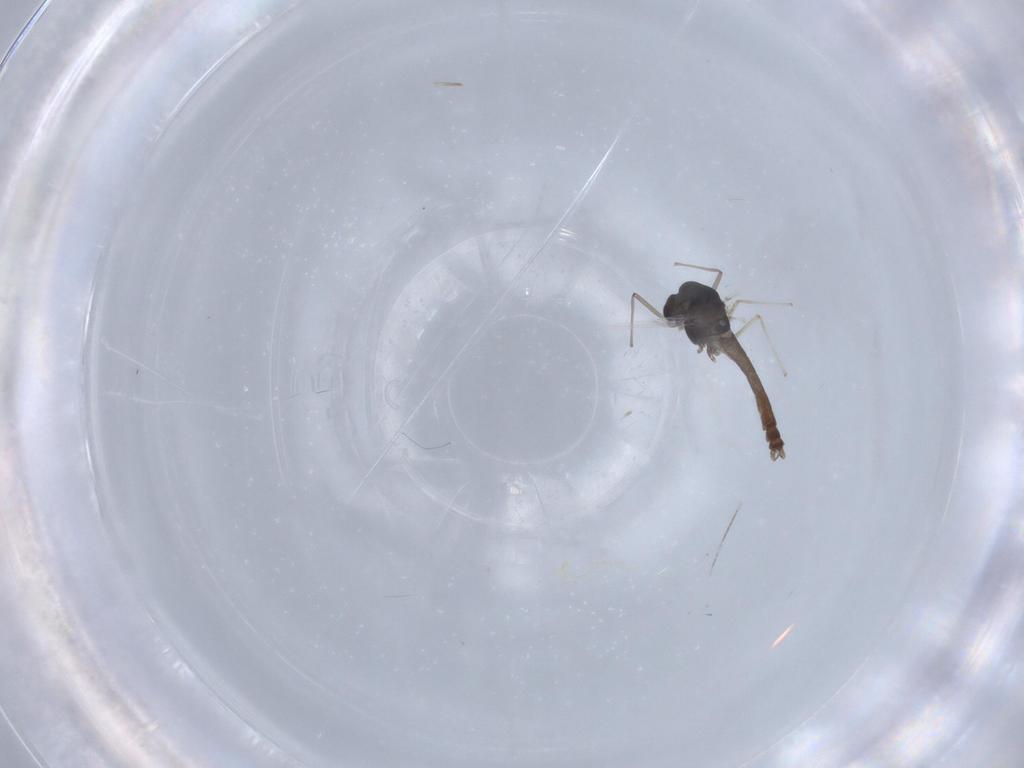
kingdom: Animalia
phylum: Arthropoda
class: Insecta
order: Diptera
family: Chironomidae
